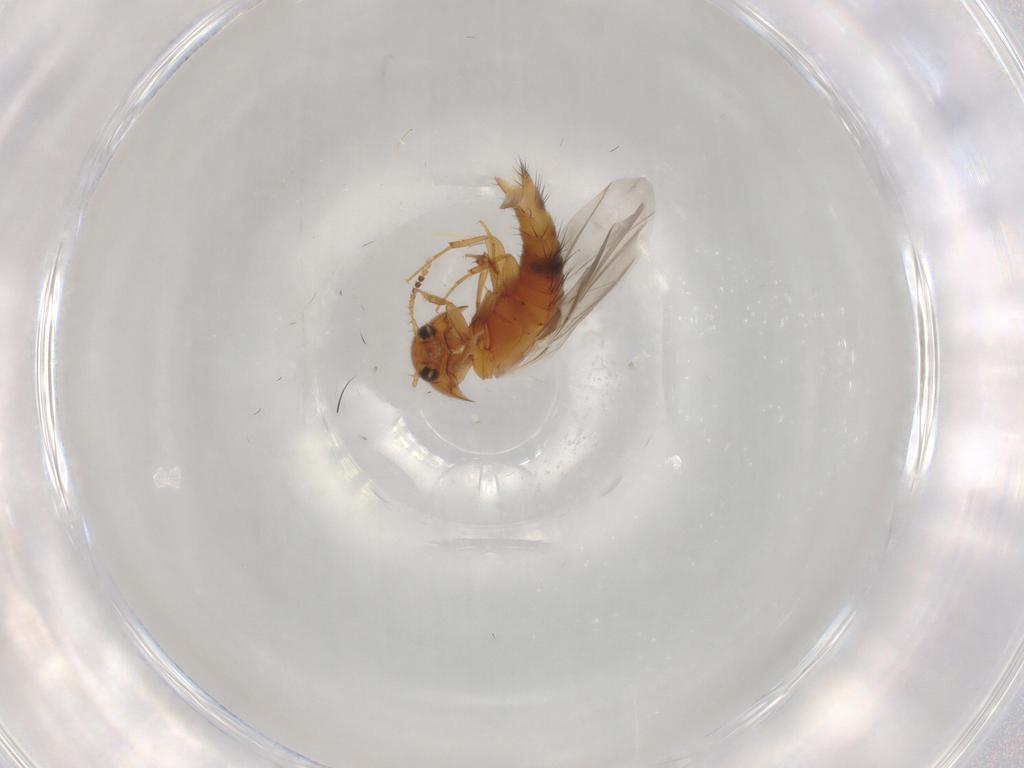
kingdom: Animalia
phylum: Arthropoda
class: Insecta
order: Coleoptera
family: Staphylinidae
